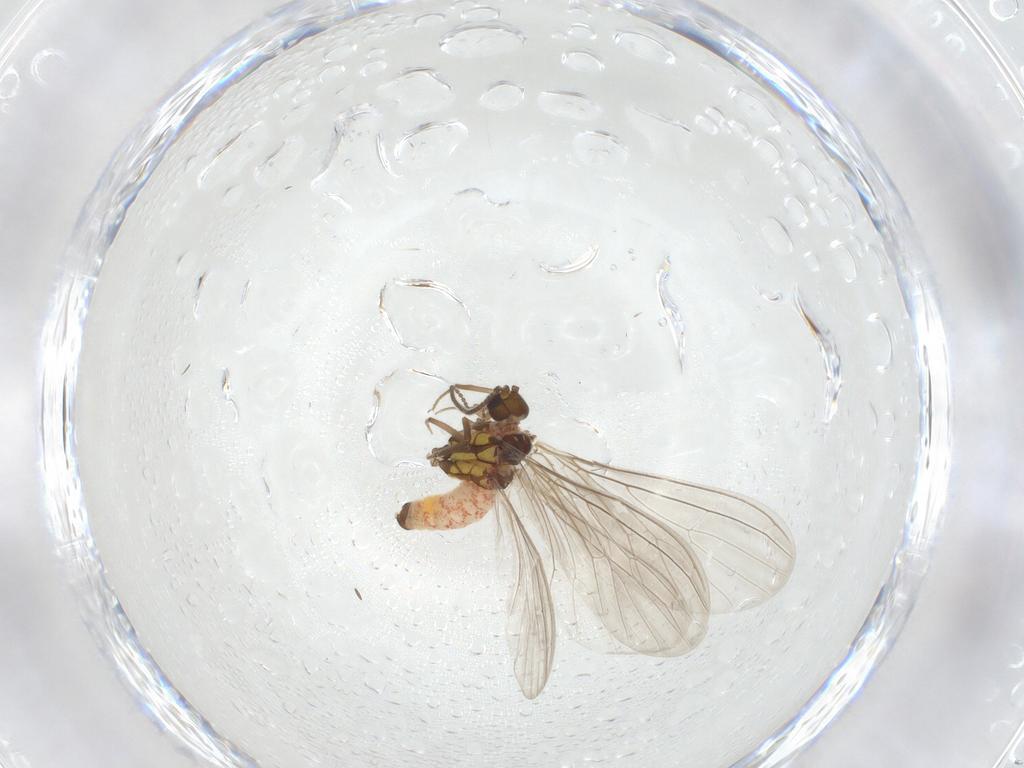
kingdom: Animalia
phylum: Arthropoda
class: Insecta
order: Neuroptera
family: Coniopterygidae
